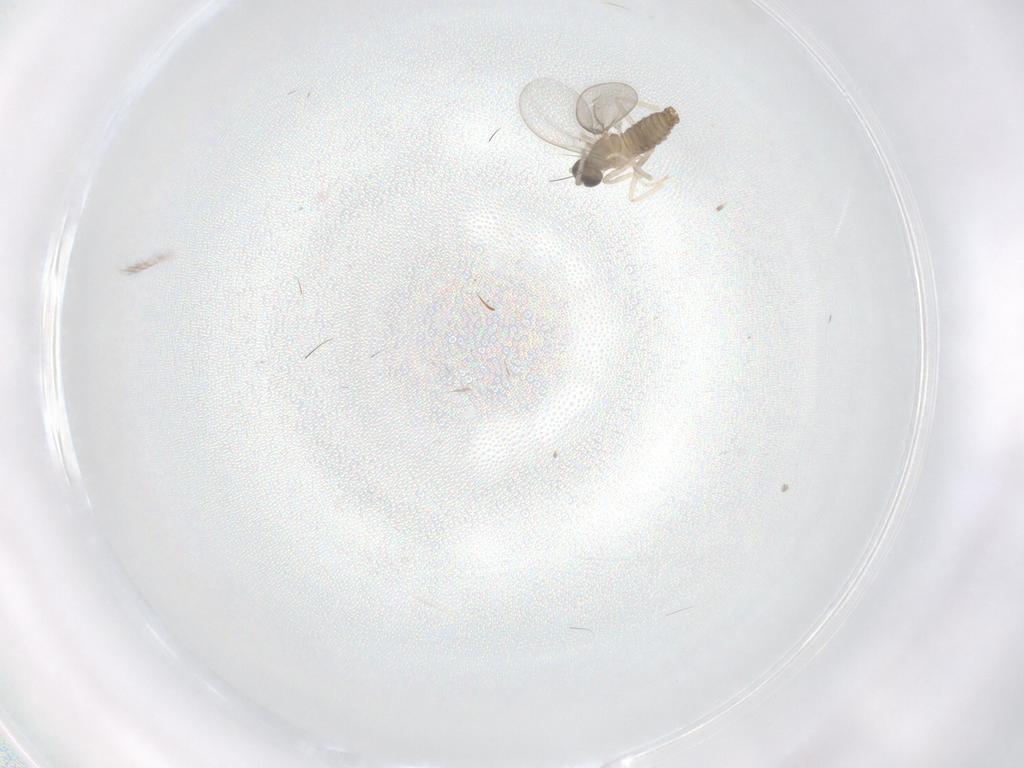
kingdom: Animalia
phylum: Arthropoda
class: Insecta
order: Diptera
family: Cecidomyiidae
